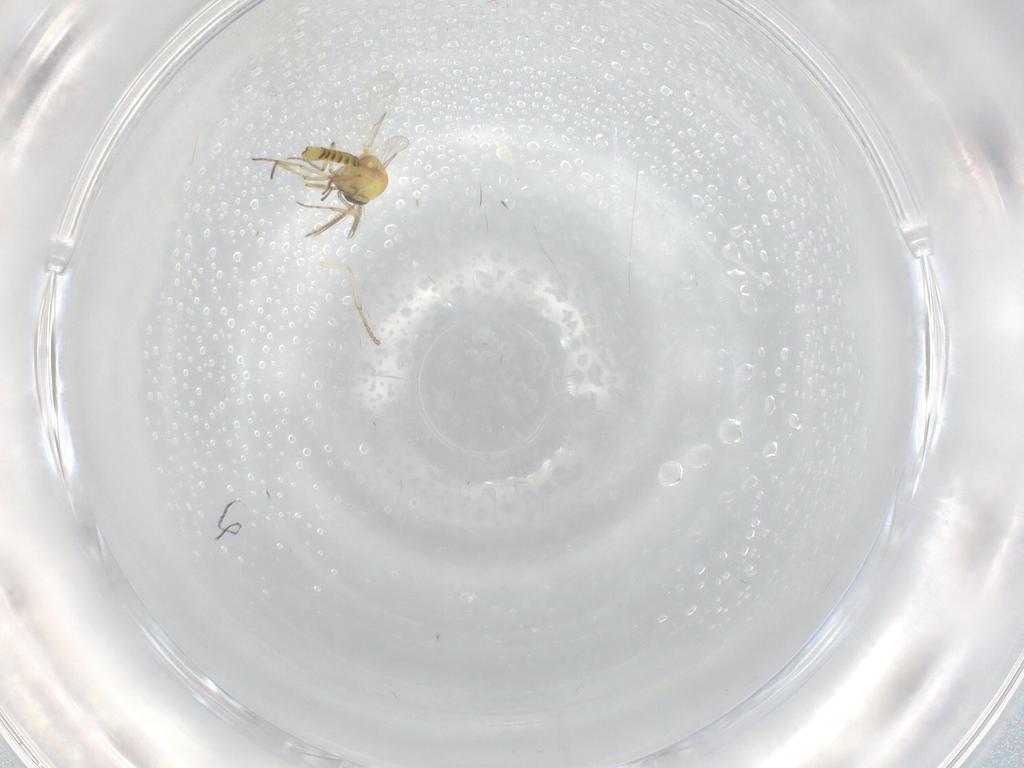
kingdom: Animalia
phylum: Arthropoda
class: Insecta
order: Diptera
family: Ceratopogonidae
